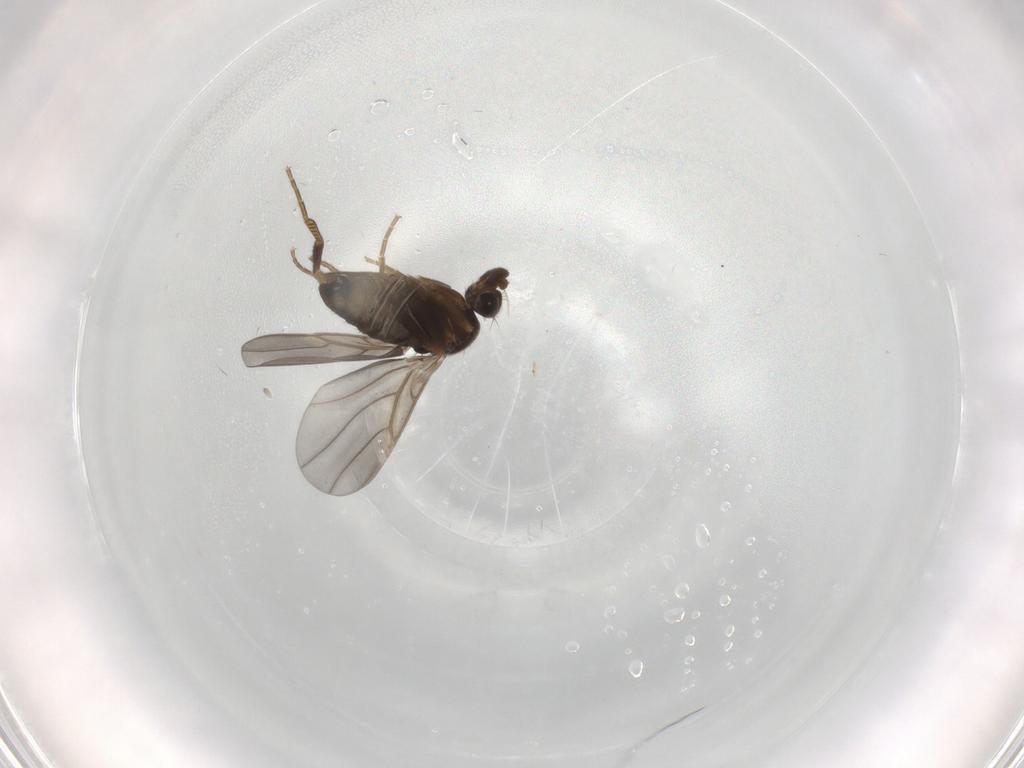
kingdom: Animalia
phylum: Arthropoda
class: Insecta
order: Diptera
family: Phoridae
